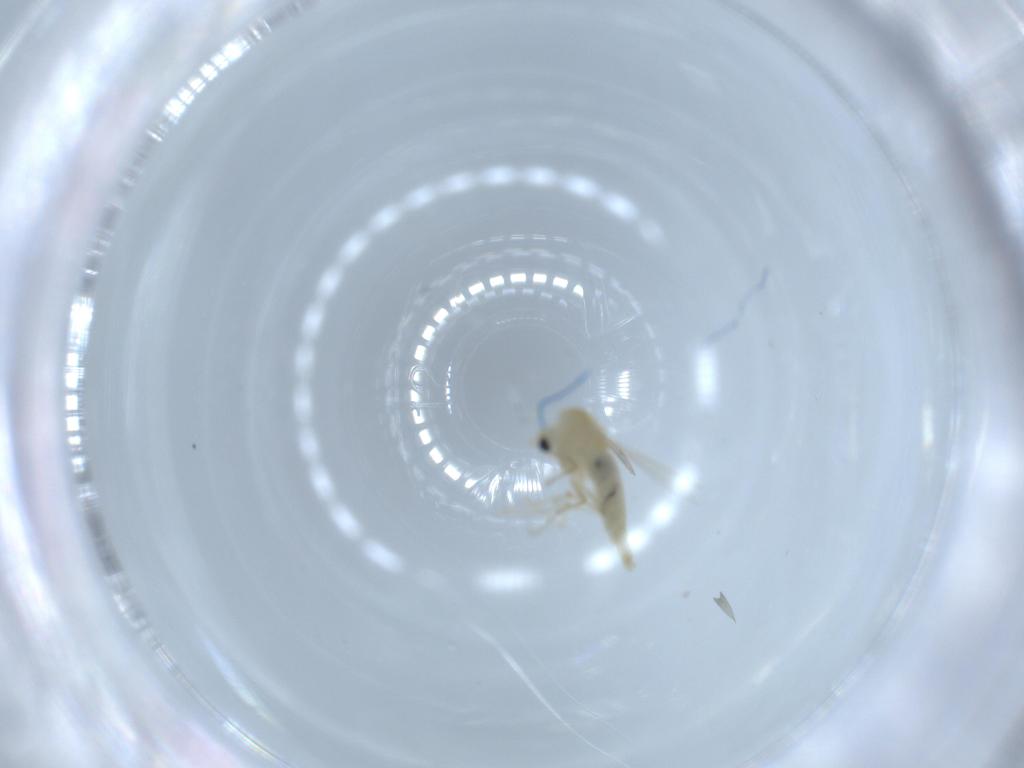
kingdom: Animalia
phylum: Arthropoda
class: Insecta
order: Diptera
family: Chironomidae
